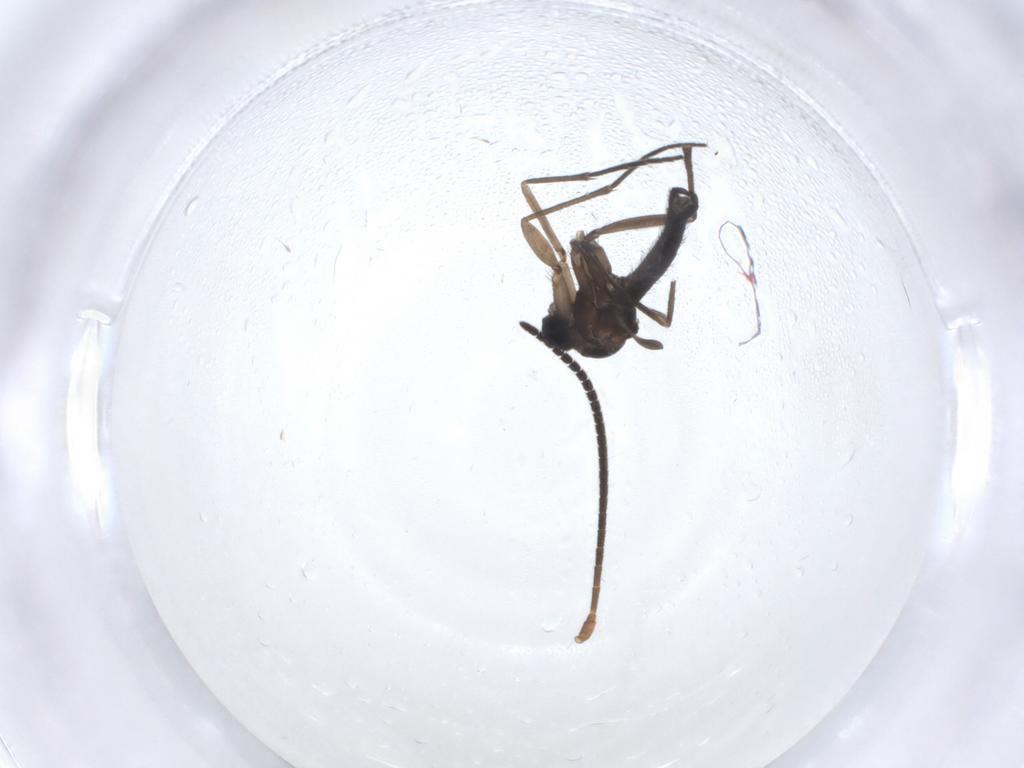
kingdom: Animalia
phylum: Arthropoda
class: Insecta
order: Diptera
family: Sciaridae
